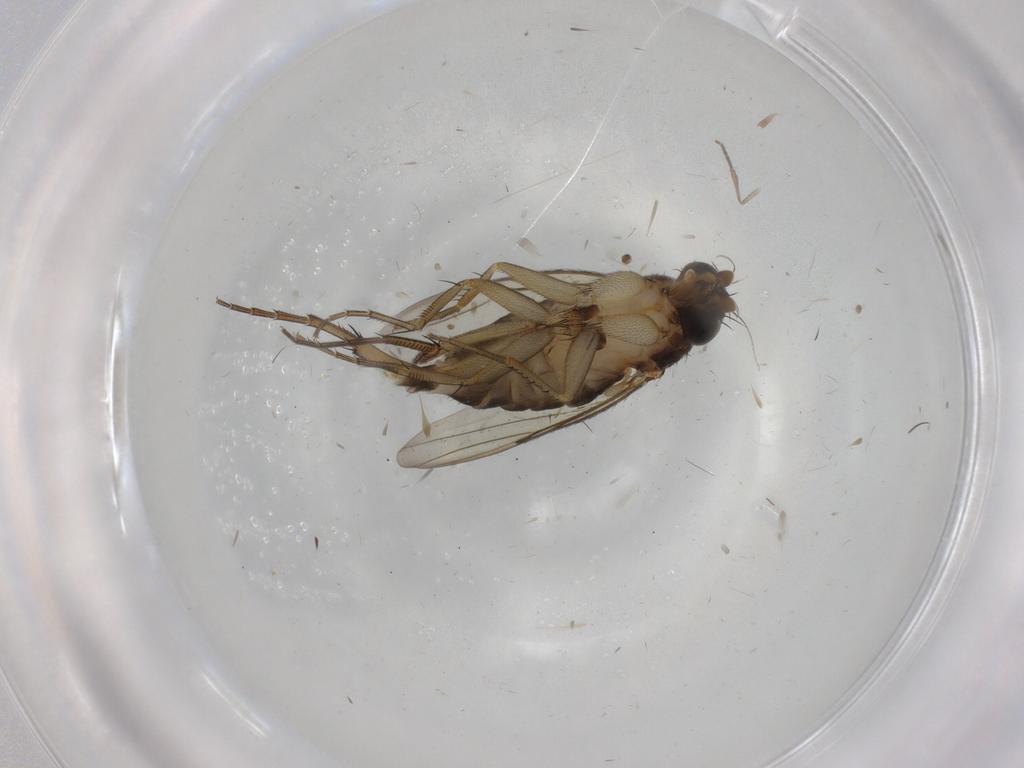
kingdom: Animalia
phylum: Arthropoda
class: Insecta
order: Diptera
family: Phoridae
